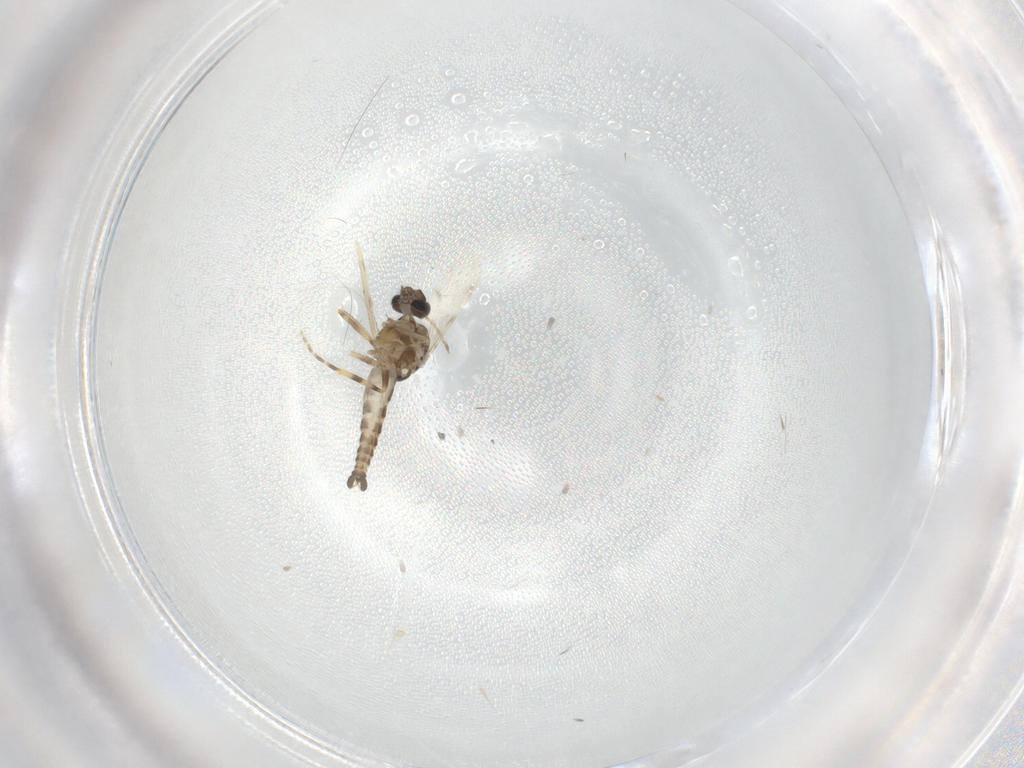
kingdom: Animalia
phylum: Arthropoda
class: Insecta
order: Diptera
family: Ceratopogonidae
